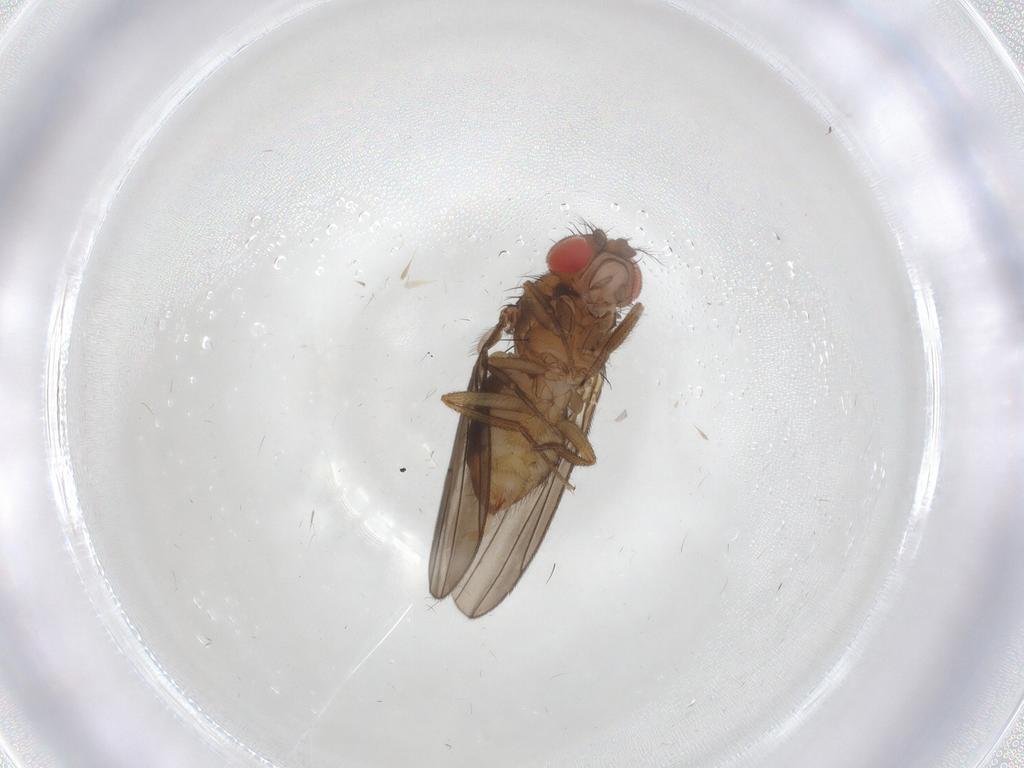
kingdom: Animalia
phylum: Arthropoda
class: Insecta
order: Diptera
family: Drosophilidae
